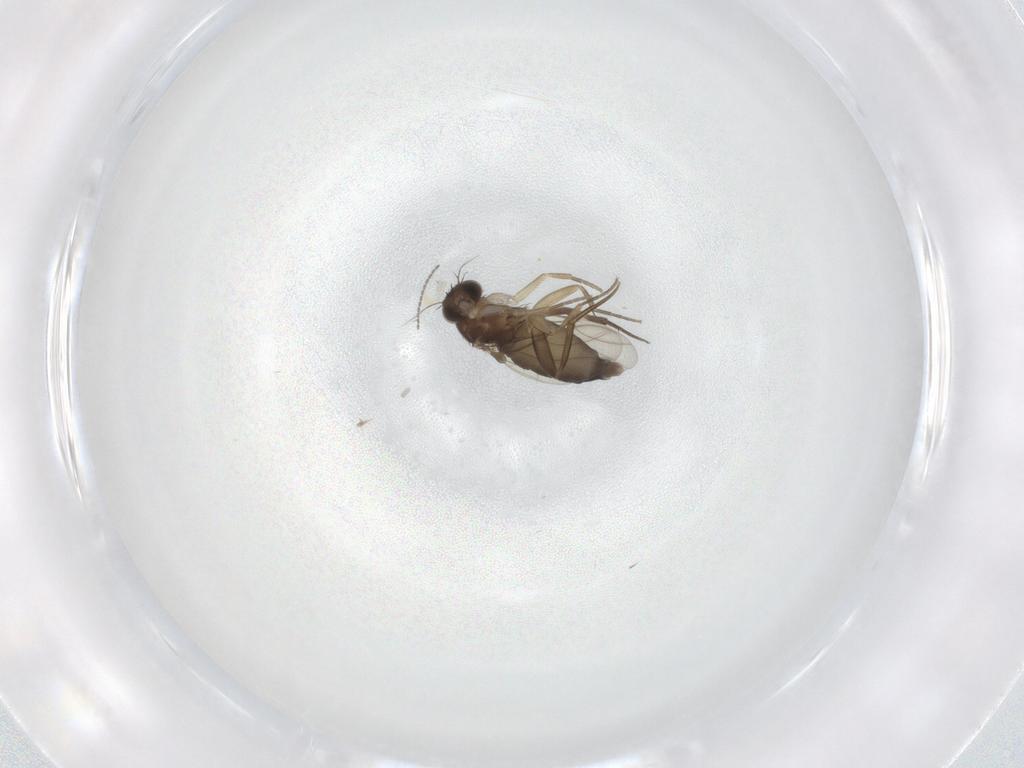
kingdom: Animalia
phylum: Arthropoda
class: Insecta
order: Diptera
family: Phoridae
